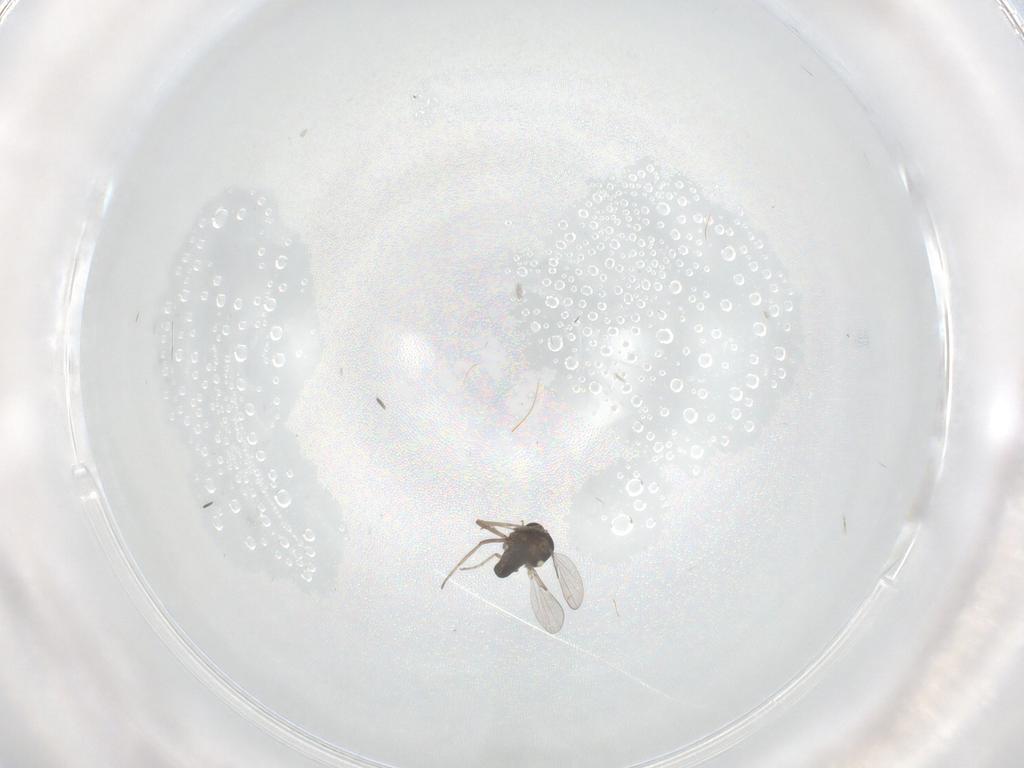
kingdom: Animalia
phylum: Arthropoda
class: Insecta
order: Diptera
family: Ceratopogonidae
